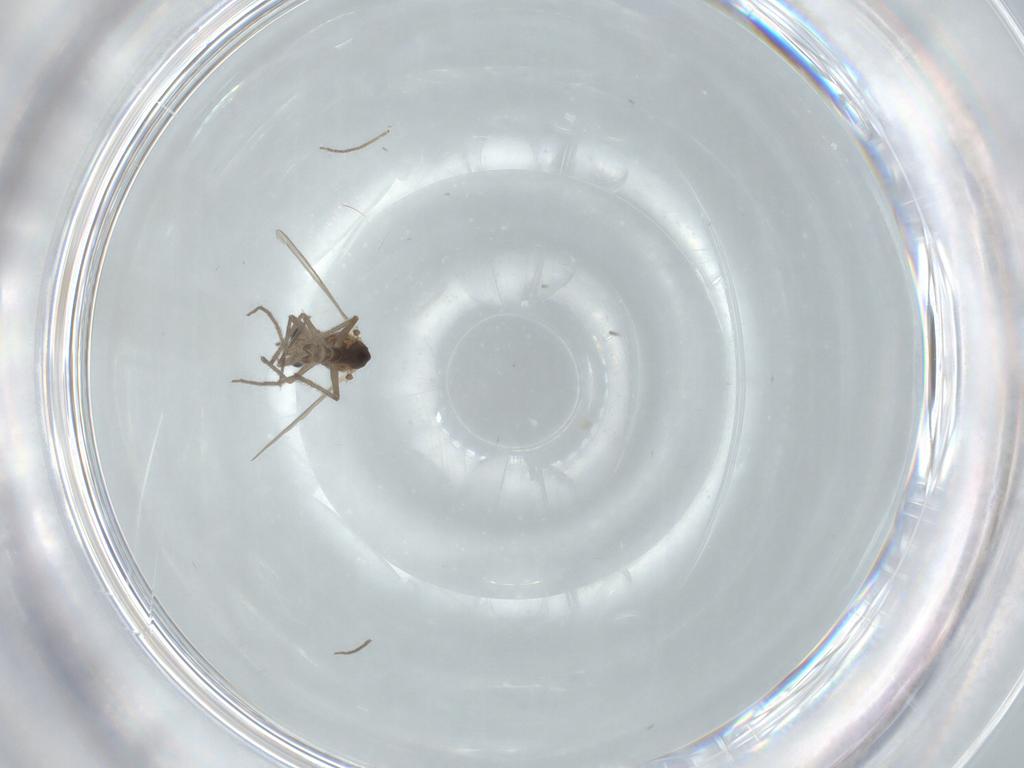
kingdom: Animalia
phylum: Arthropoda
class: Insecta
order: Diptera
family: Chironomidae
